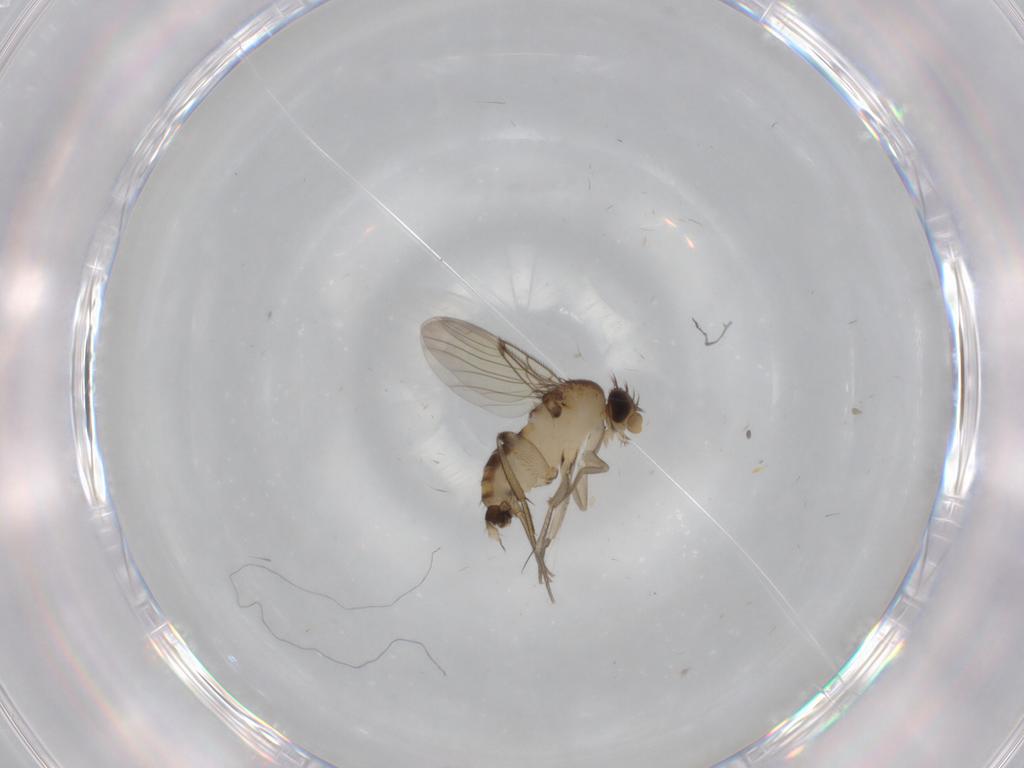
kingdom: Animalia
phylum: Arthropoda
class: Insecta
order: Diptera
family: Phoridae
